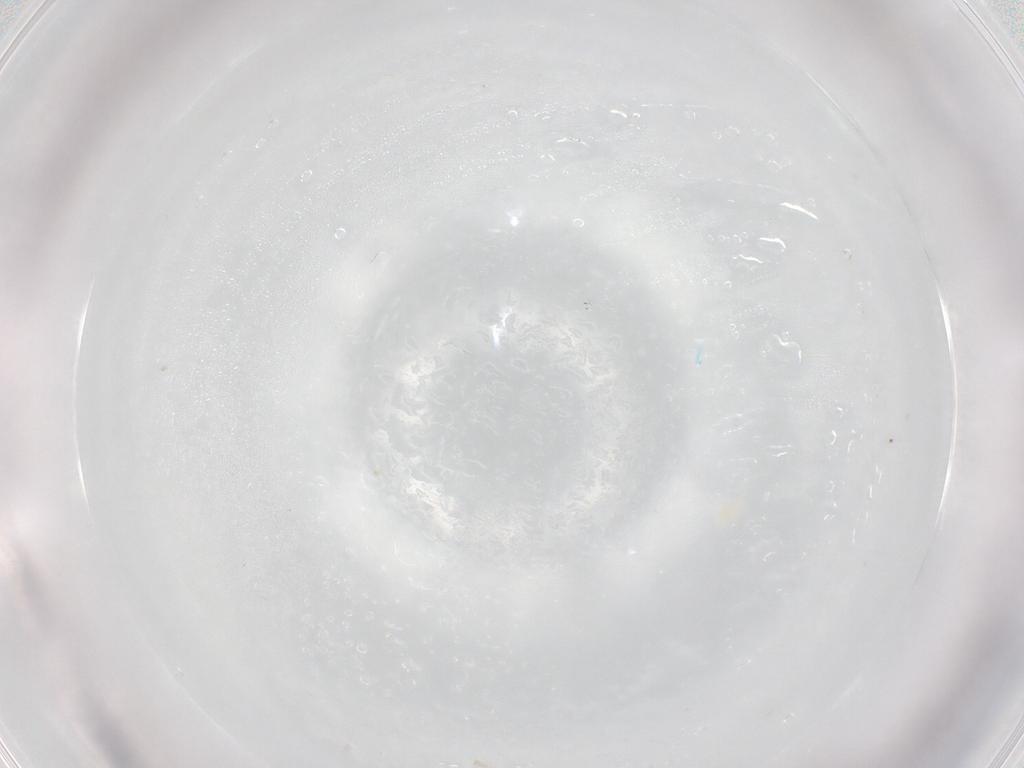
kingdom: Animalia
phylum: Arthropoda
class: Arachnida
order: Trombidiformes
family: Eupodidae
